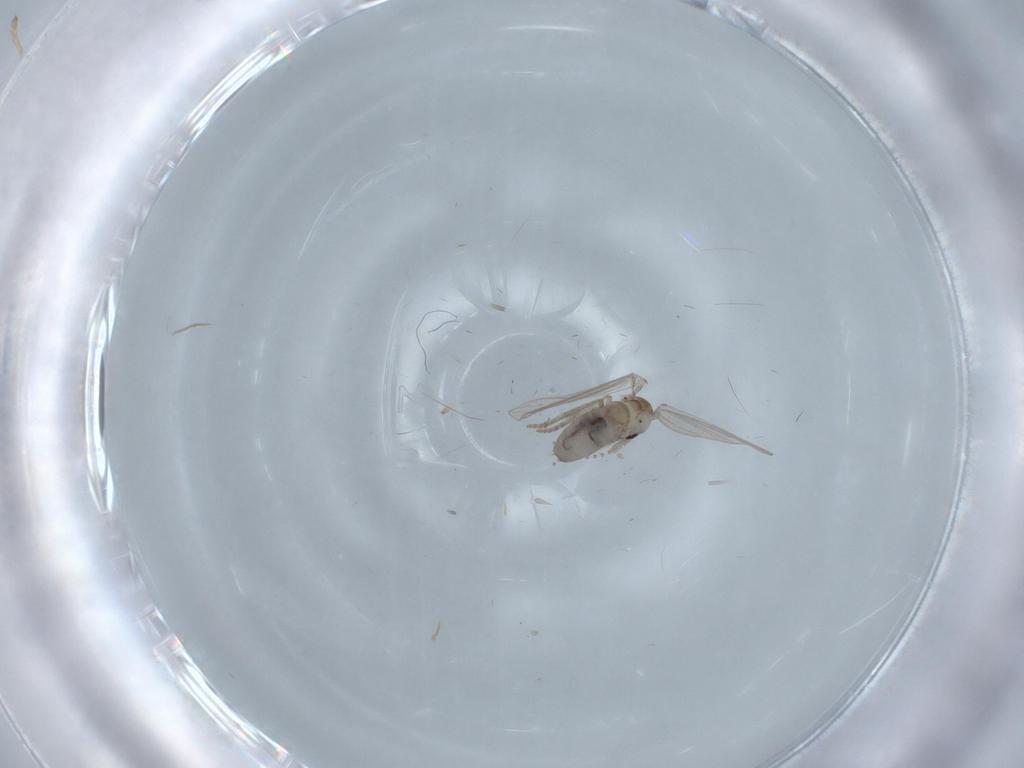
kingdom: Animalia
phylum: Arthropoda
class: Insecta
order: Diptera
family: Psychodidae
